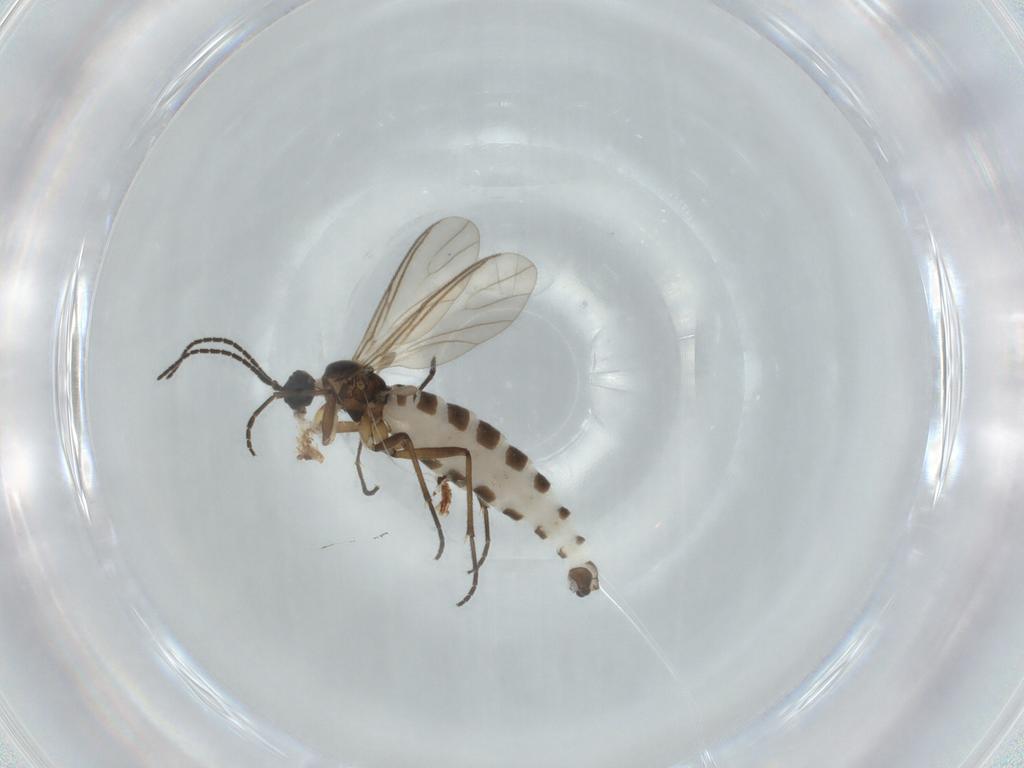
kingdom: Animalia
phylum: Arthropoda
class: Insecta
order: Diptera
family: Sciaridae
